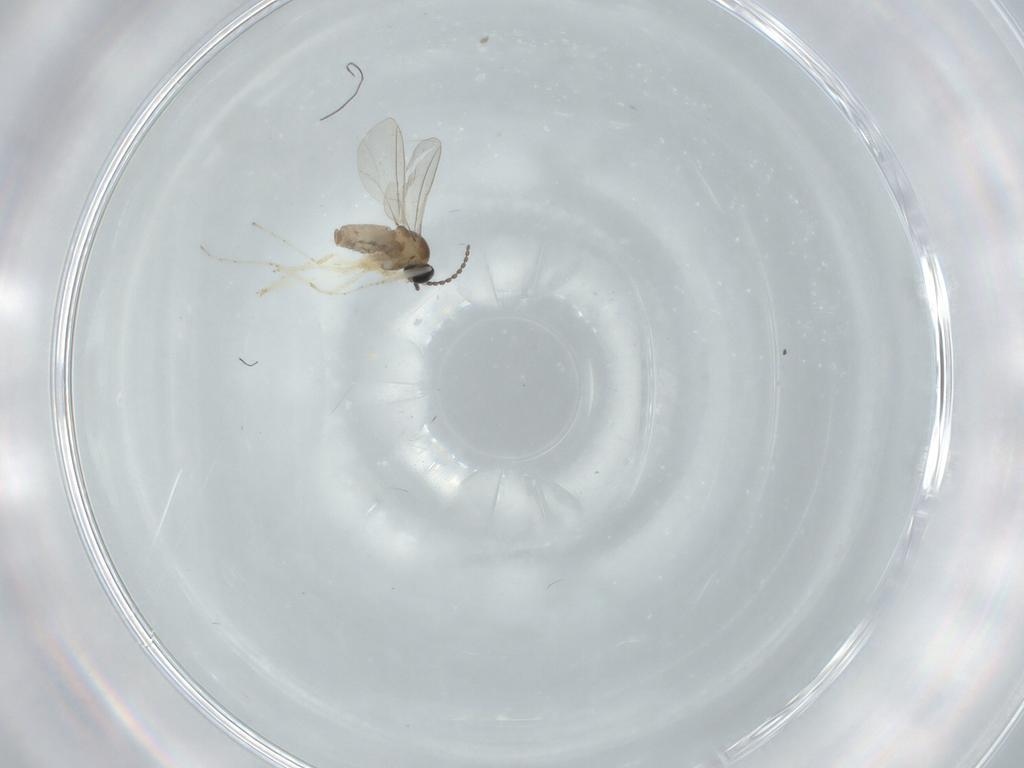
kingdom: Animalia
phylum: Arthropoda
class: Insecta
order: Diptera
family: Cecidomyiidae
